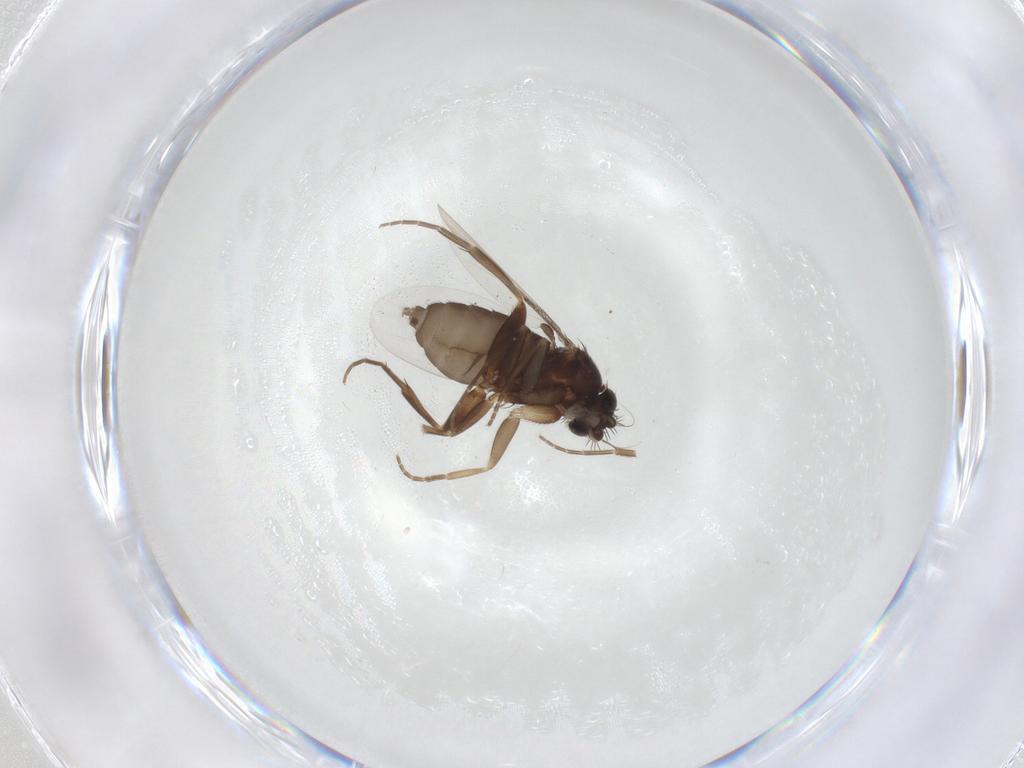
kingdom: Animalia
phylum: Arthropoda
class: Insecta
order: Diptera
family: Phoridae
